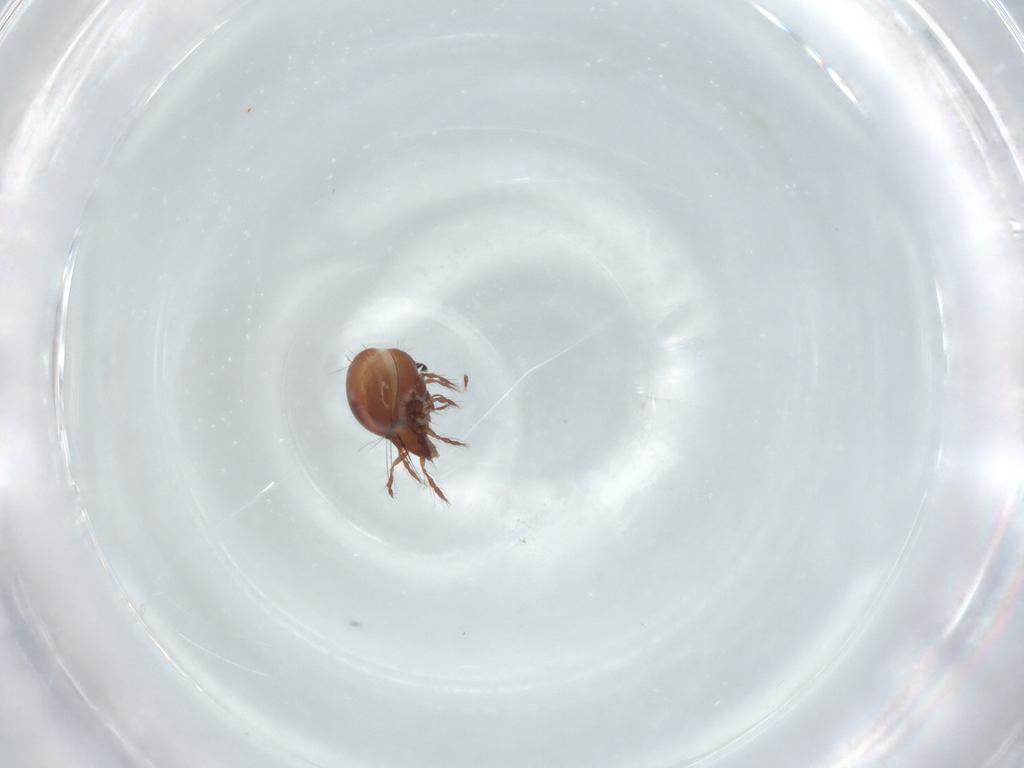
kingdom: Animalia
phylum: Arthropoda
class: Arachnida
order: Sarcoptiformes
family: Ceratoppiidae
